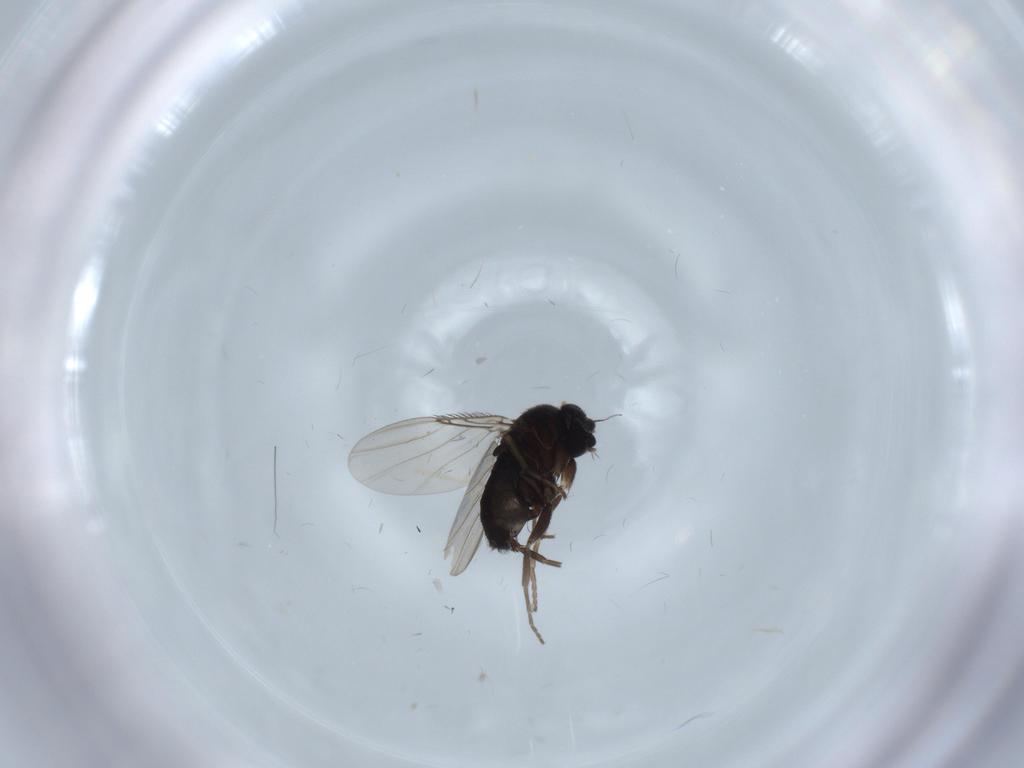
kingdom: Animalia
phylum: Arthropoda
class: Insecta
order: Diptera
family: Phoridae
